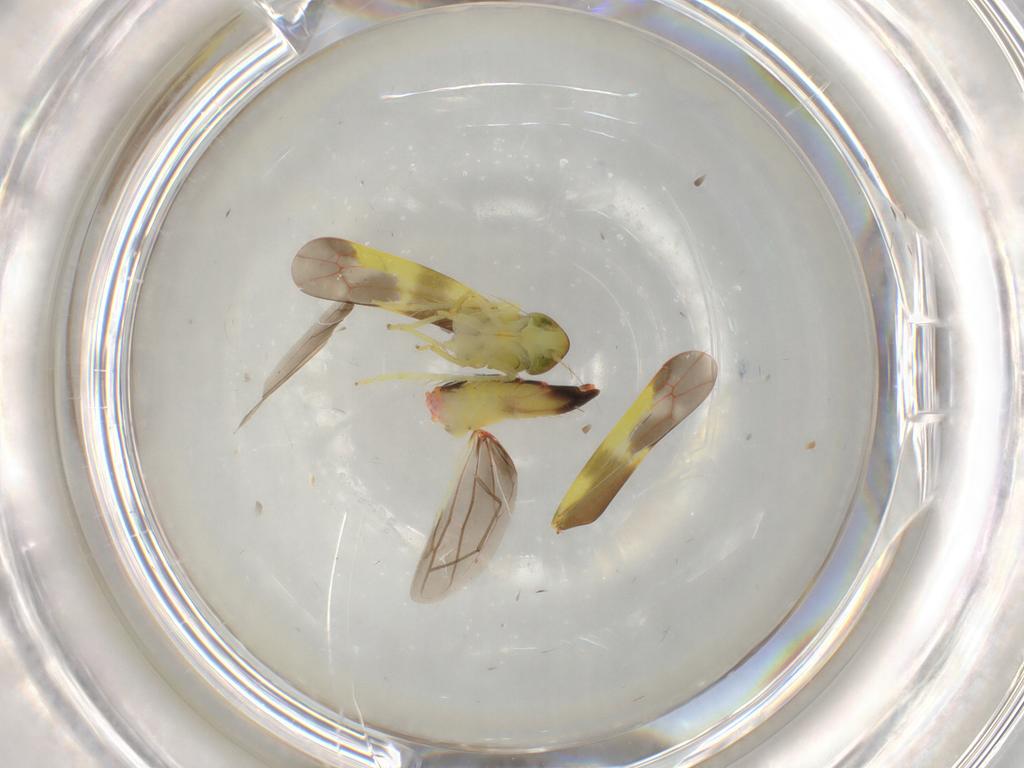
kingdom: Animalia
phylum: Arthropoda
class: Insecta
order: Hemiptera
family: Cicadellidae
